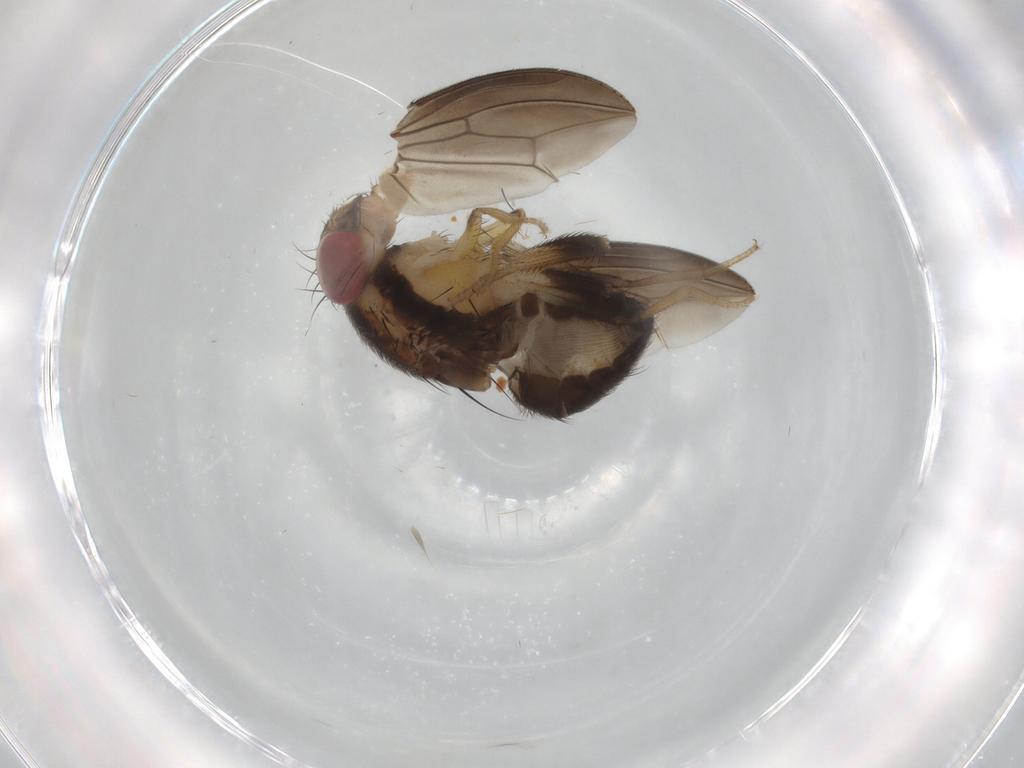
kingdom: Animalia
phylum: Arthropoda
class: Insecta
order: Diptera
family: Drosophilidae
